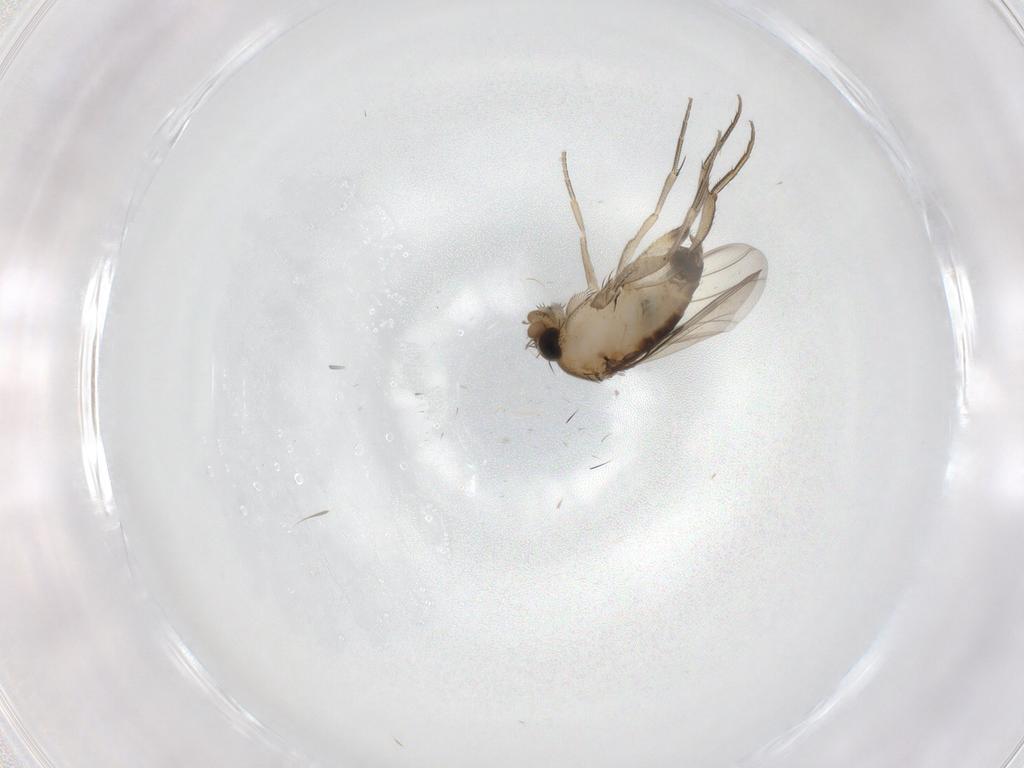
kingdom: Animalia
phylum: Arthropoda
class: Insecta
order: Diptera
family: Phoridae
